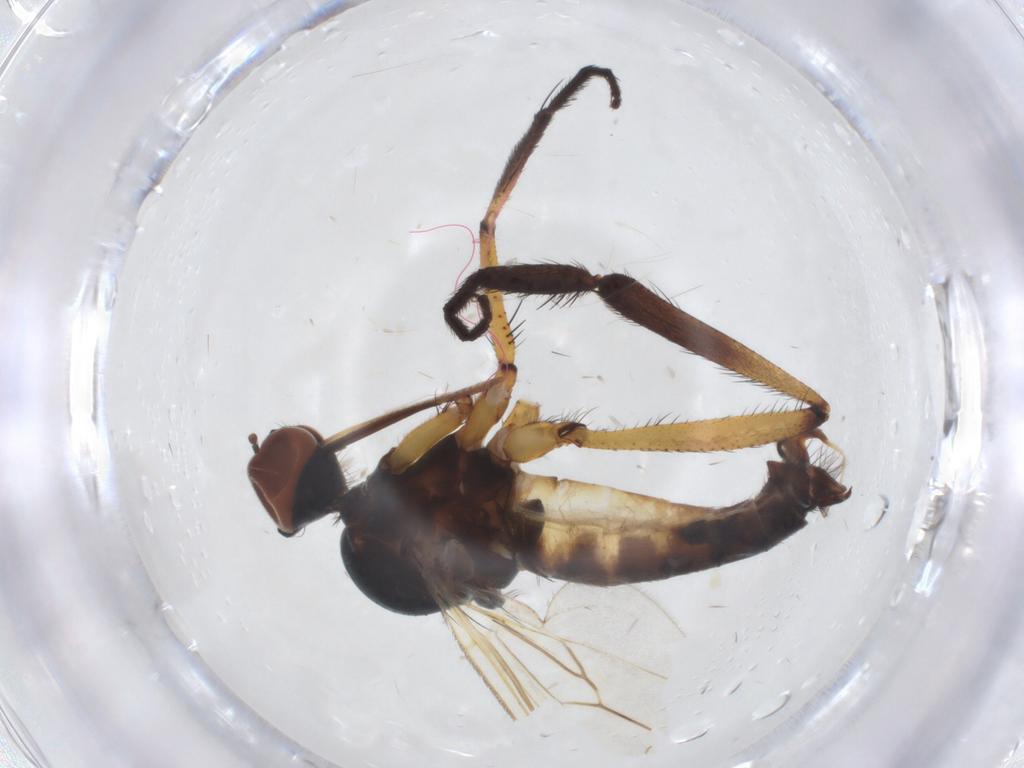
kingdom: Animalia
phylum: Arthropoda
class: Insecta
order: Diptera
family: Empididae
